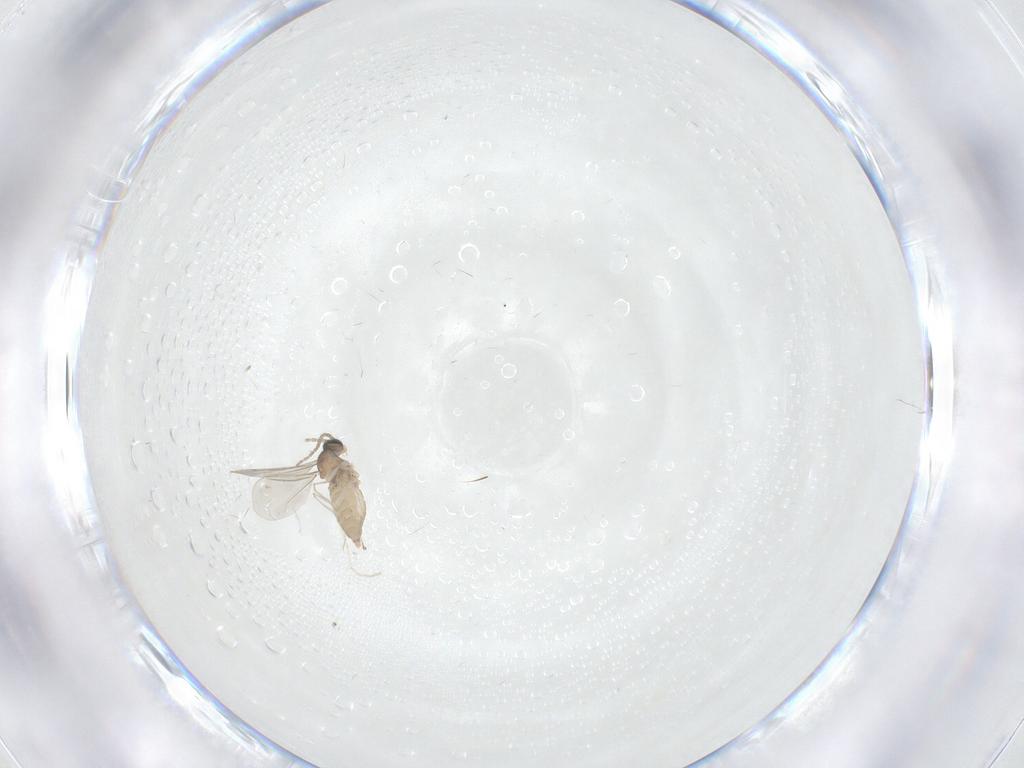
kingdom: Animalia
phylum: Arthropoda
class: Insecta
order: Diptera
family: Cecidomyiidae
